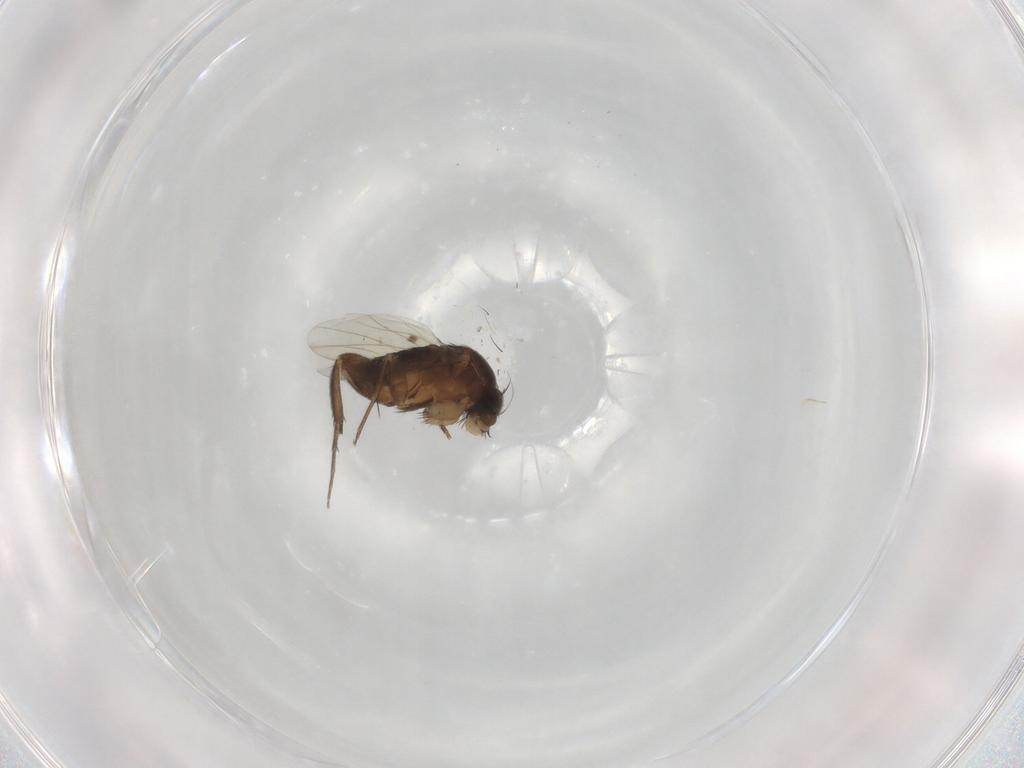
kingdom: Animalia
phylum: Arthropoda
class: Insecta
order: Diptera
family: Phoridae
